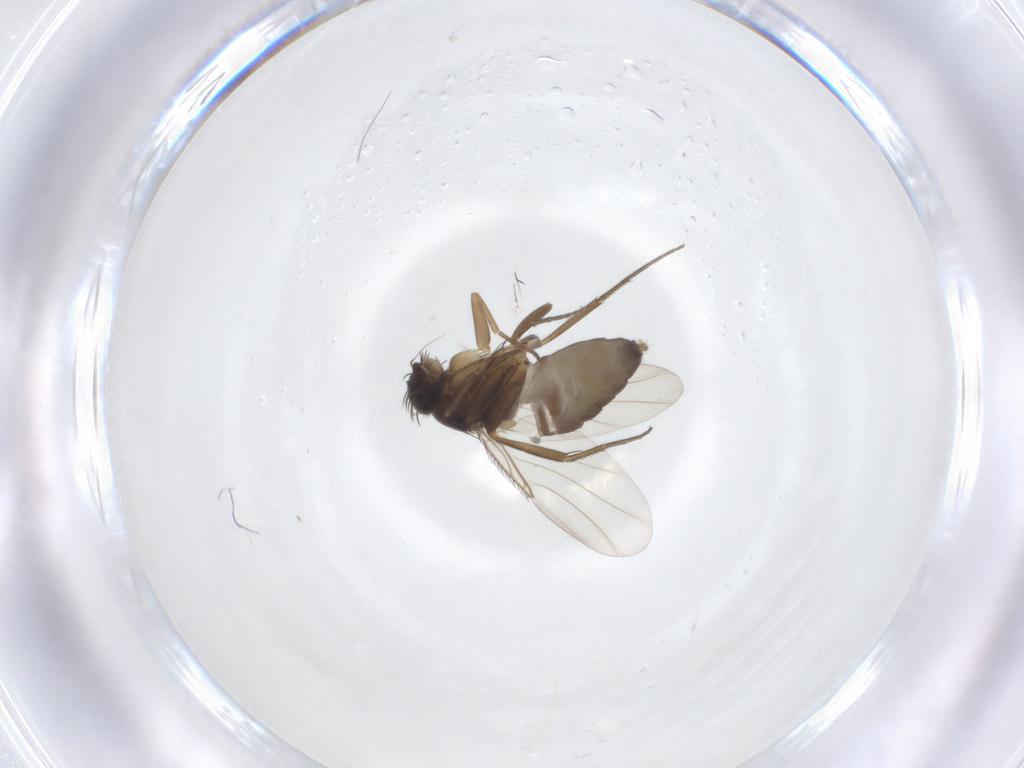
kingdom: Animalia
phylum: Arthropoda
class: Insecta
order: Diptera
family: Phoridae
